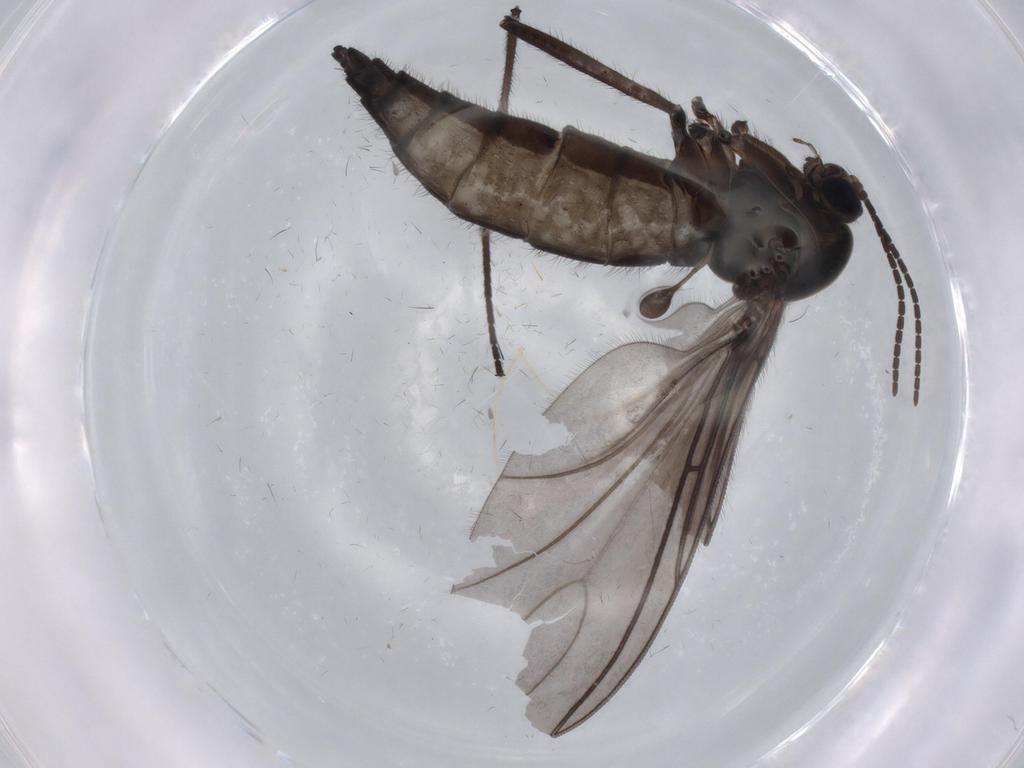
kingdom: Animalia
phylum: Arthropoda
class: Insecta
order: Diptera
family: Sciaridae
